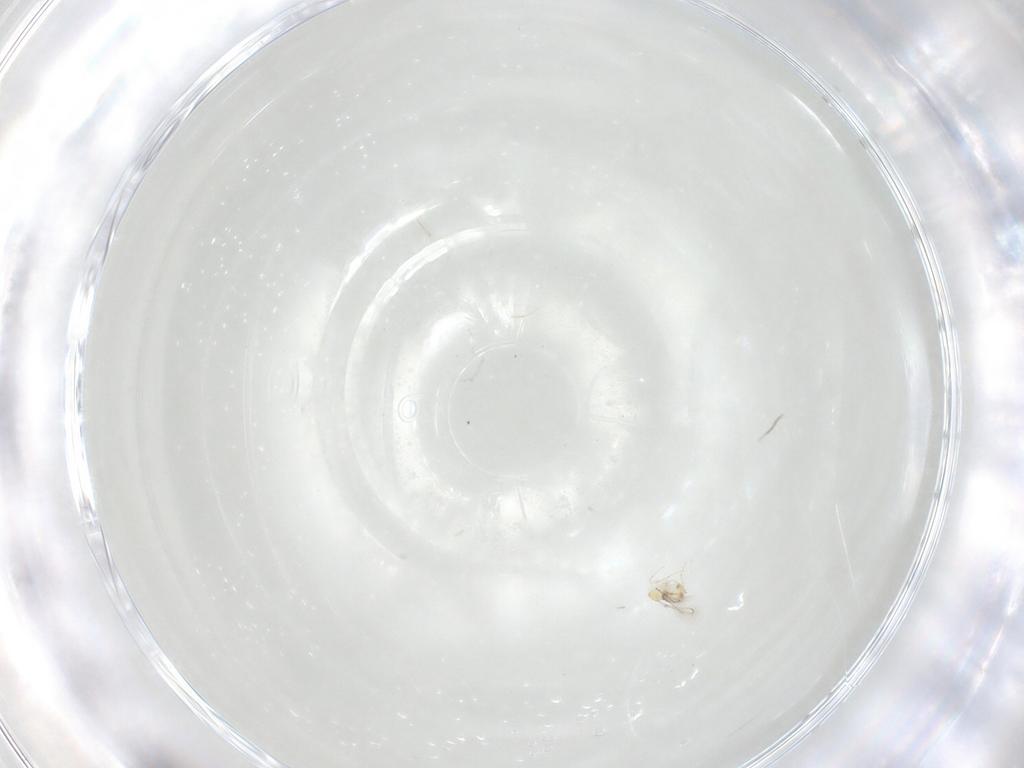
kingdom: Animalia
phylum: Arthropoda
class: Insecta
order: Hymenoptera
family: Mymaridae
